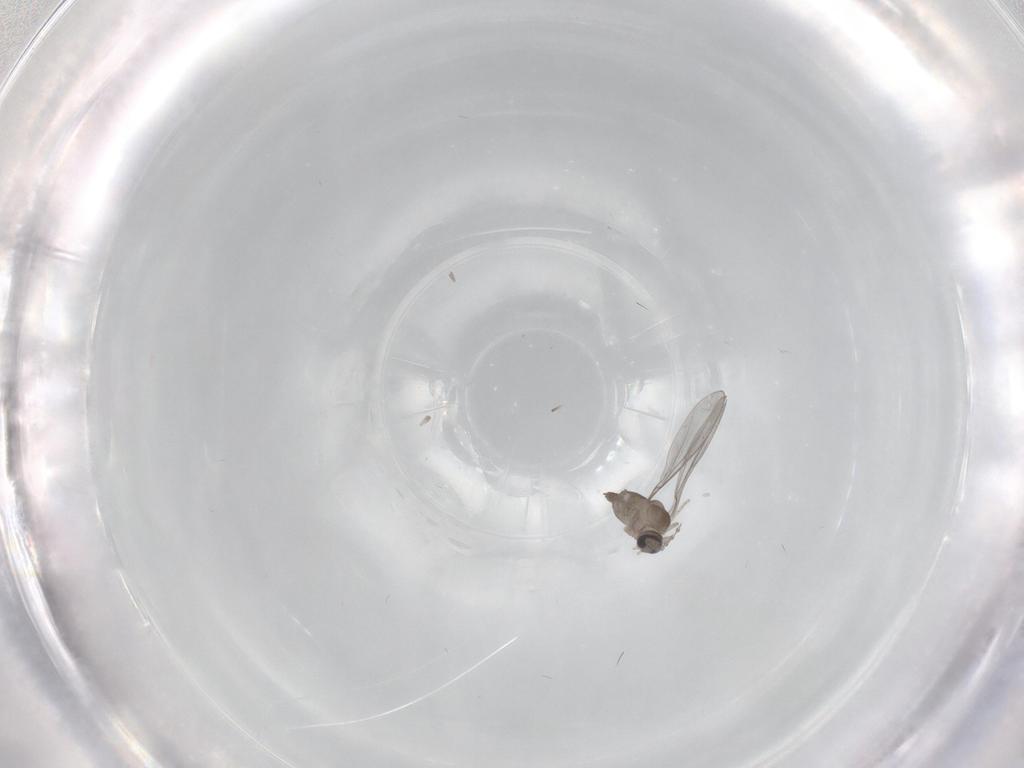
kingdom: Animalia
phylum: Arthropoda
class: Insecta
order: Diptera
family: Cecidomyiidae
